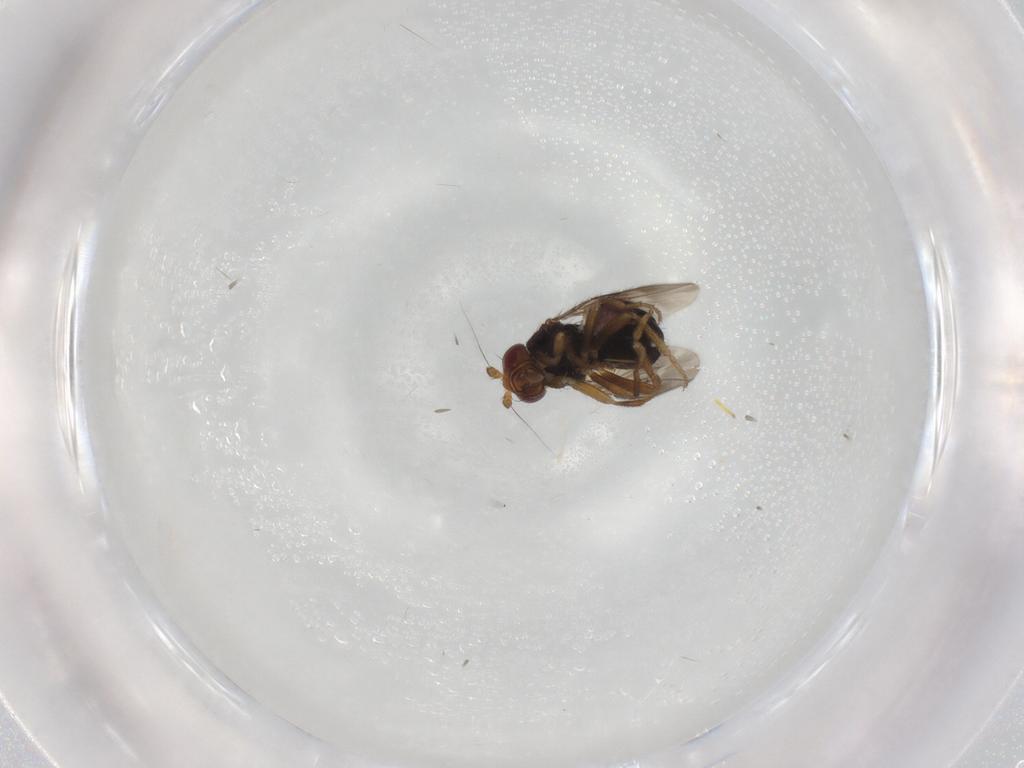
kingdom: Animalia
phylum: Arthropoda
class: Insecta
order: Diptera
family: Sphaeroceridae
